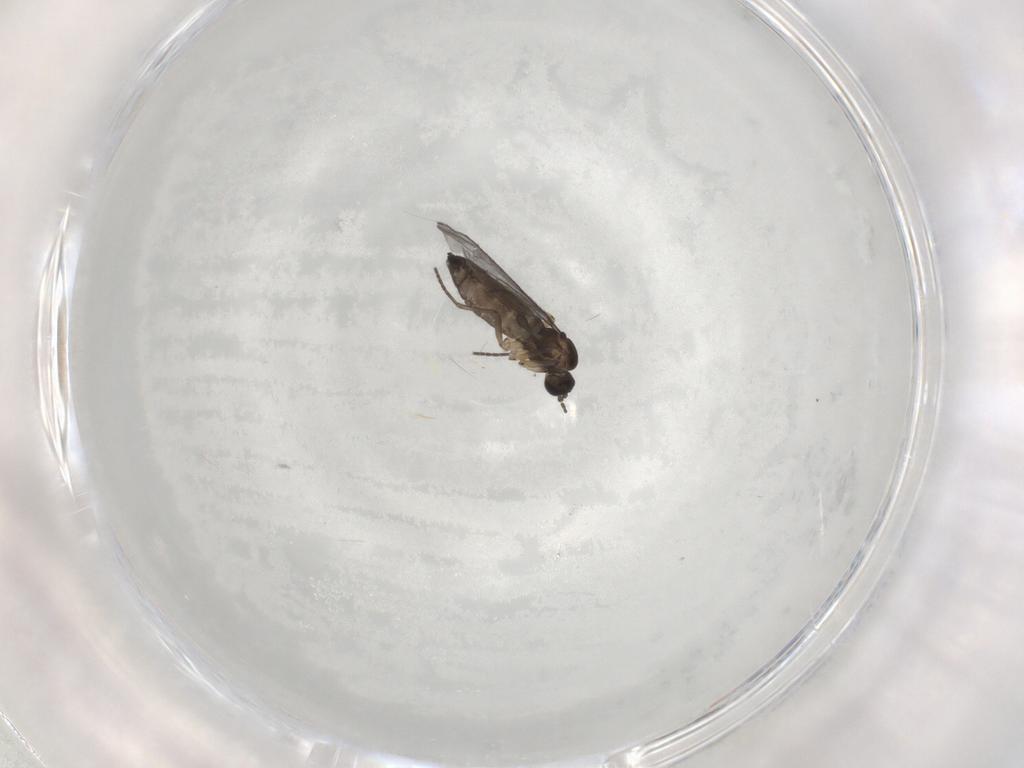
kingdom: Animalia
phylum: Arthropoda
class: Insecta
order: Diptera
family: Sciaridae
